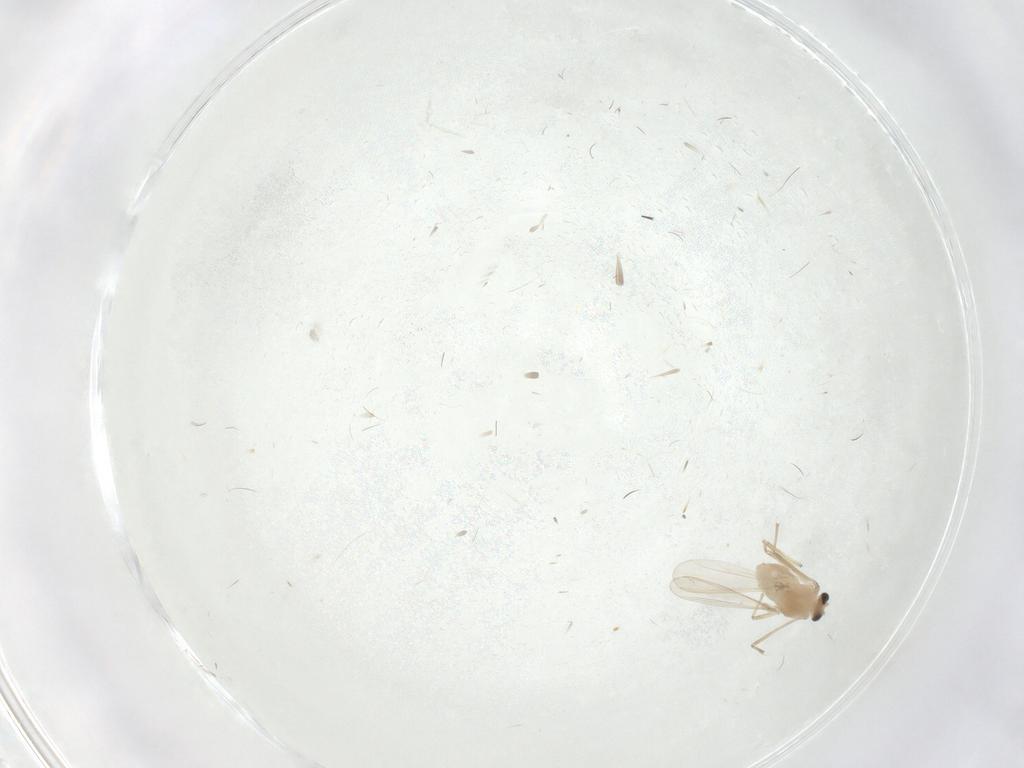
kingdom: Animalia
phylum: Arthropoda
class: Insecta
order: Diptera
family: Chironomidae
